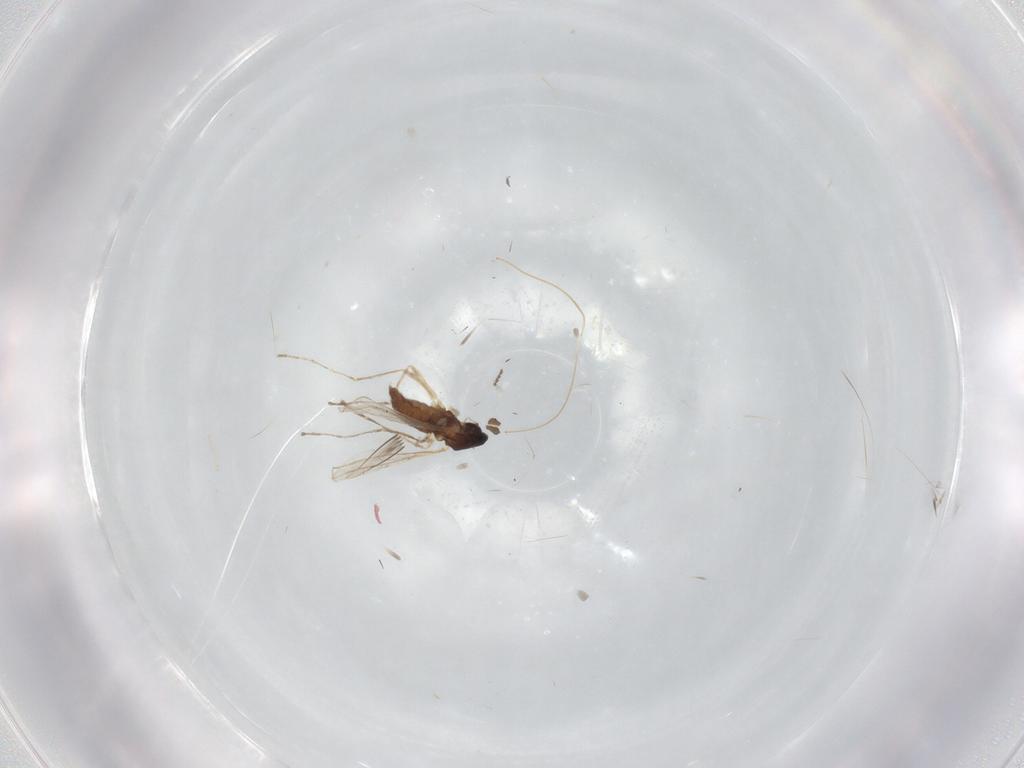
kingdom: Animalia
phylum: Arthropoda
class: Insecta
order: Diptera
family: Cecidomyiidae
